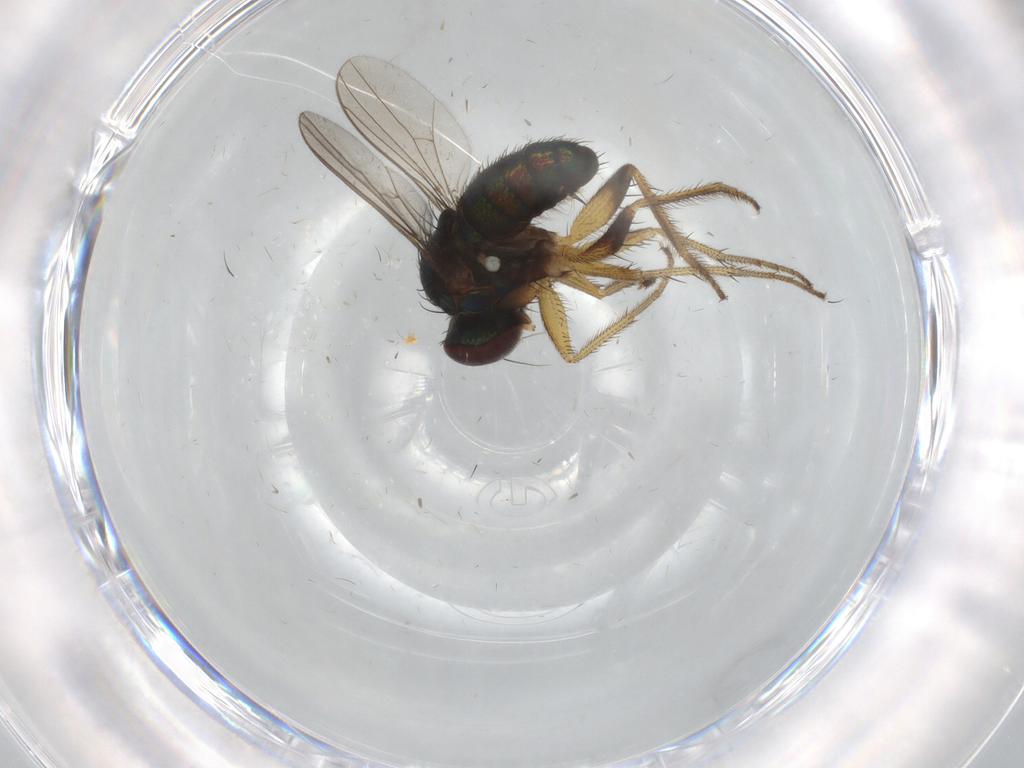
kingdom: Animalia
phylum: Arthropoda
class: Insecta
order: Diptera
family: Dolichopodidae
